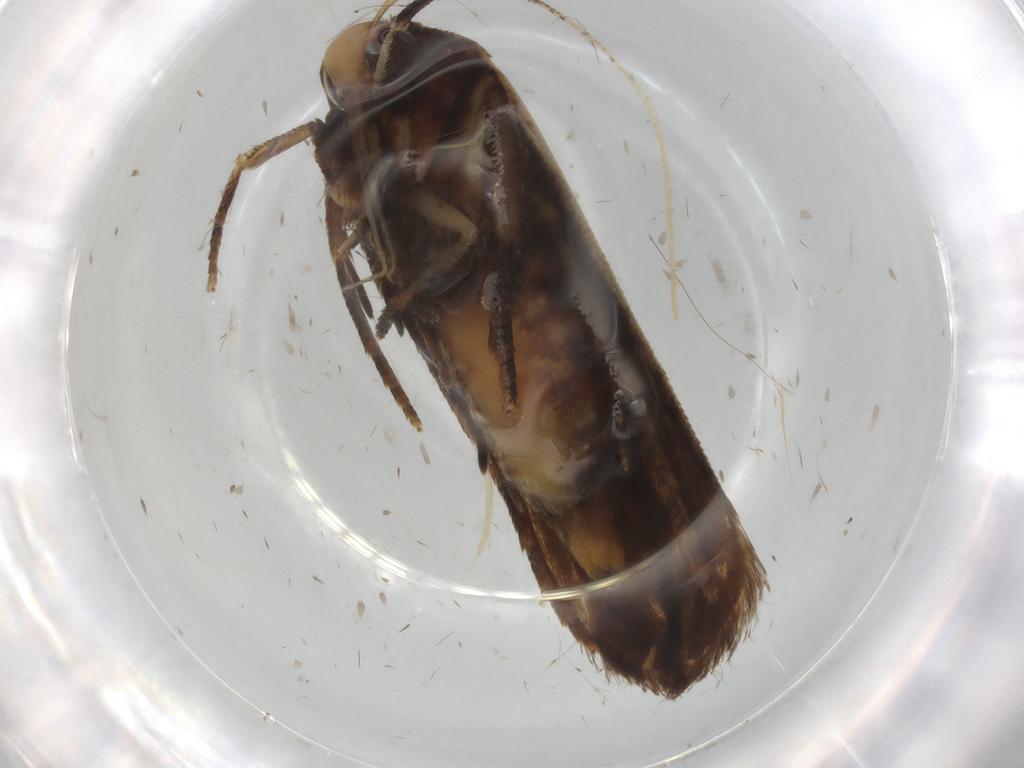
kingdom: Animalia
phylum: Arthropoda
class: Insecta
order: Lepidoptera
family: Cosmopterigidae
